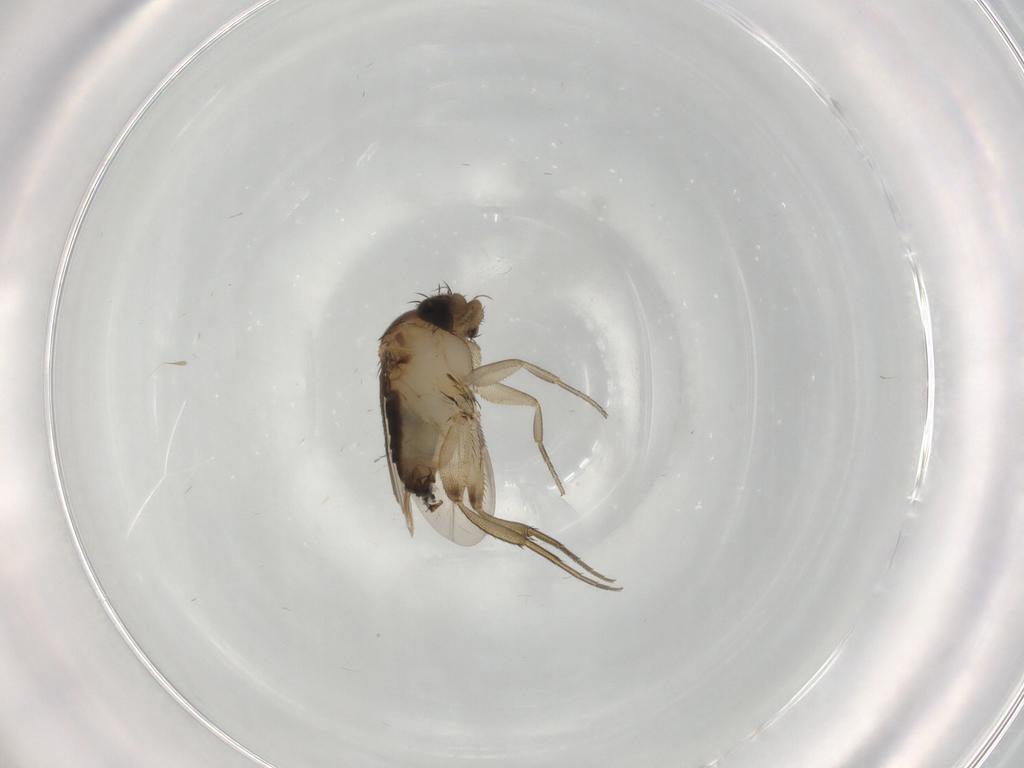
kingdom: Animalia
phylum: Arthropoda
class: Insecta
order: Diptera
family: Phoridae
